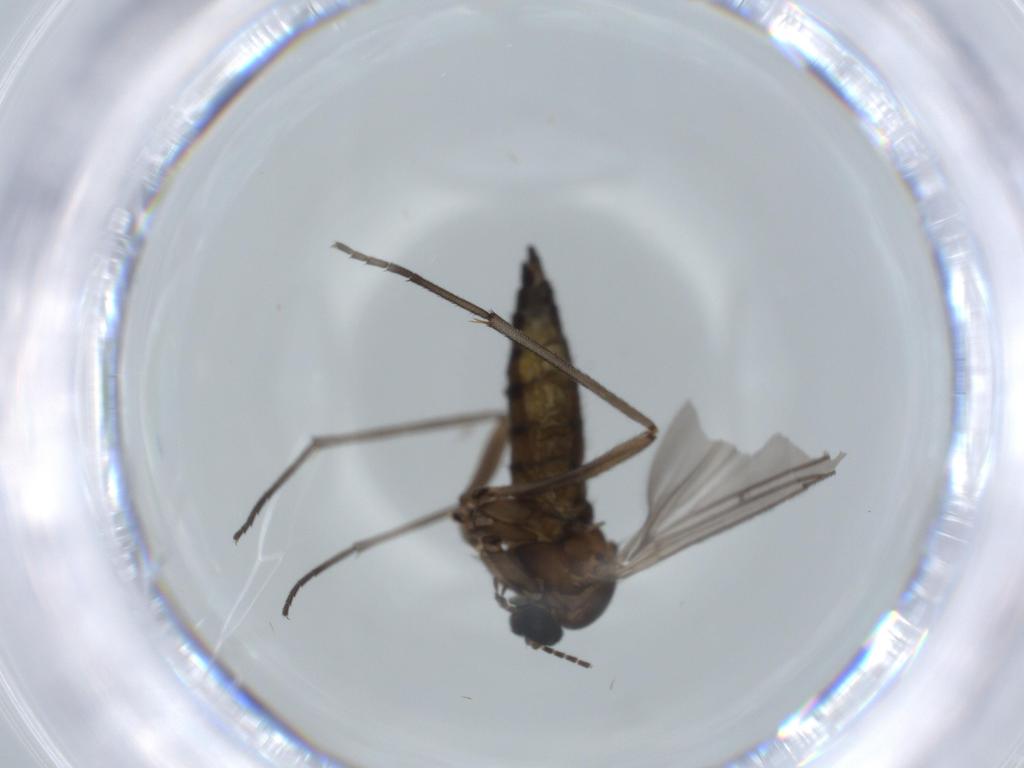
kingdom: Animalia
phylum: Arthropoda
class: Insecta
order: Diptera
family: Sciaridae
